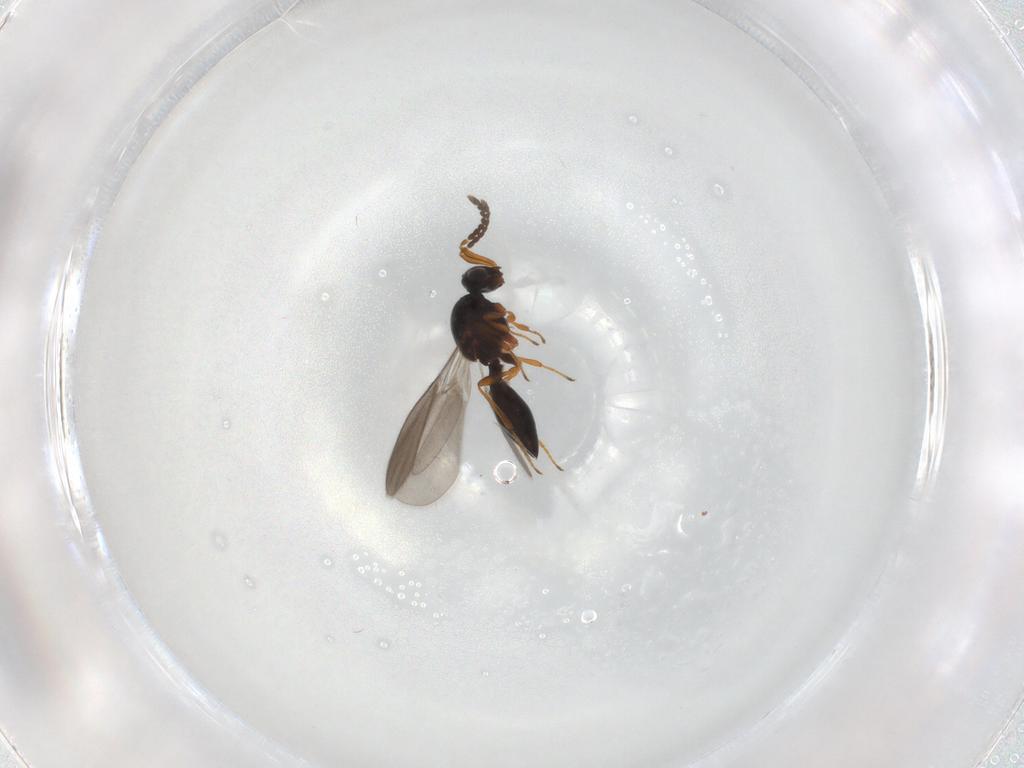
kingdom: Animalia
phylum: Arthropoda
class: Insecta
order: Hymenoptera
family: Platygastridae
